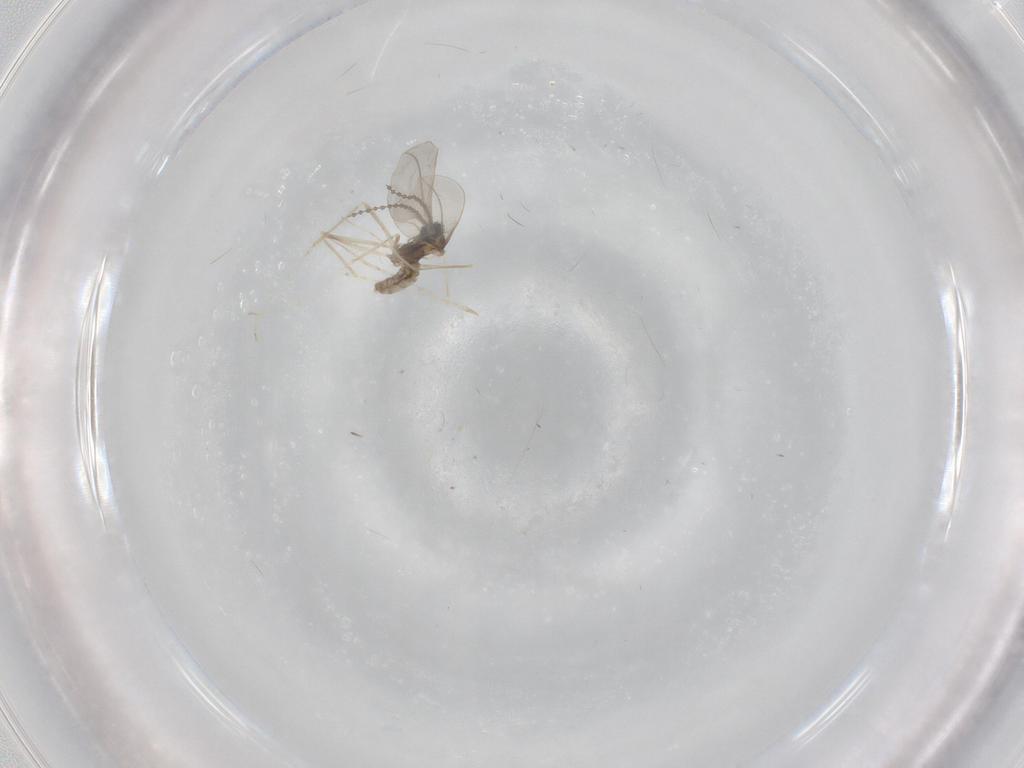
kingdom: Animalia
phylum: Arthropoda
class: Insecta
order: Diptera
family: Cecidomyiidae
